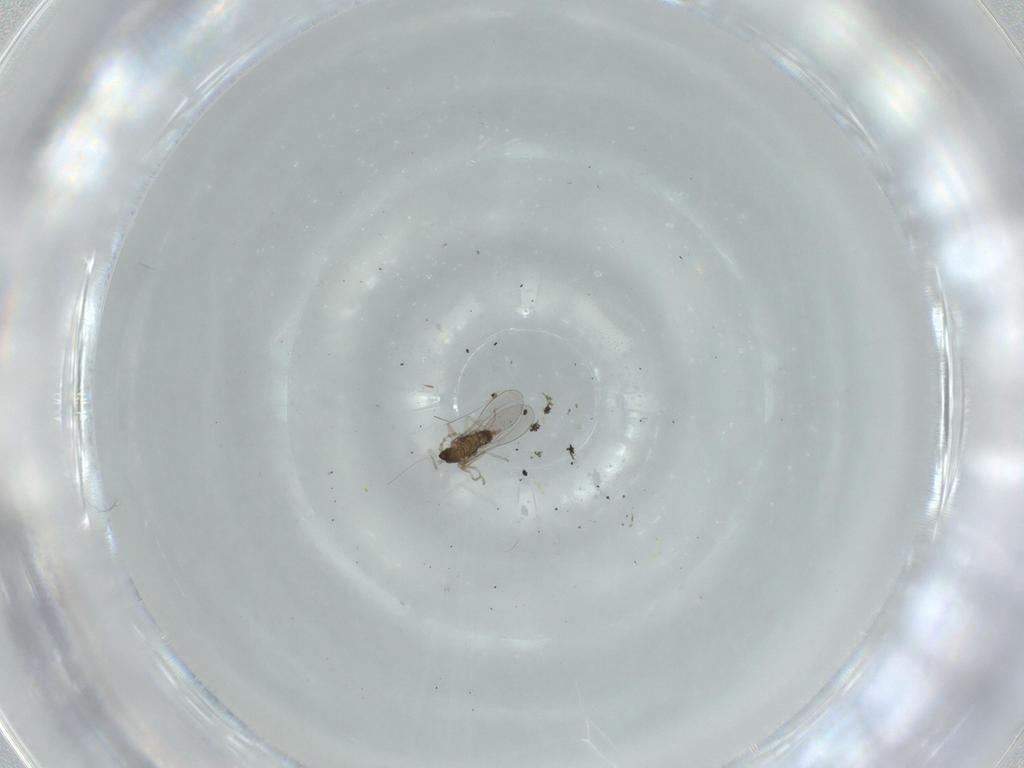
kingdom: Animalia
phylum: Arthropoda
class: Insecta
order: Diptera
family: Cecidomyiidae
